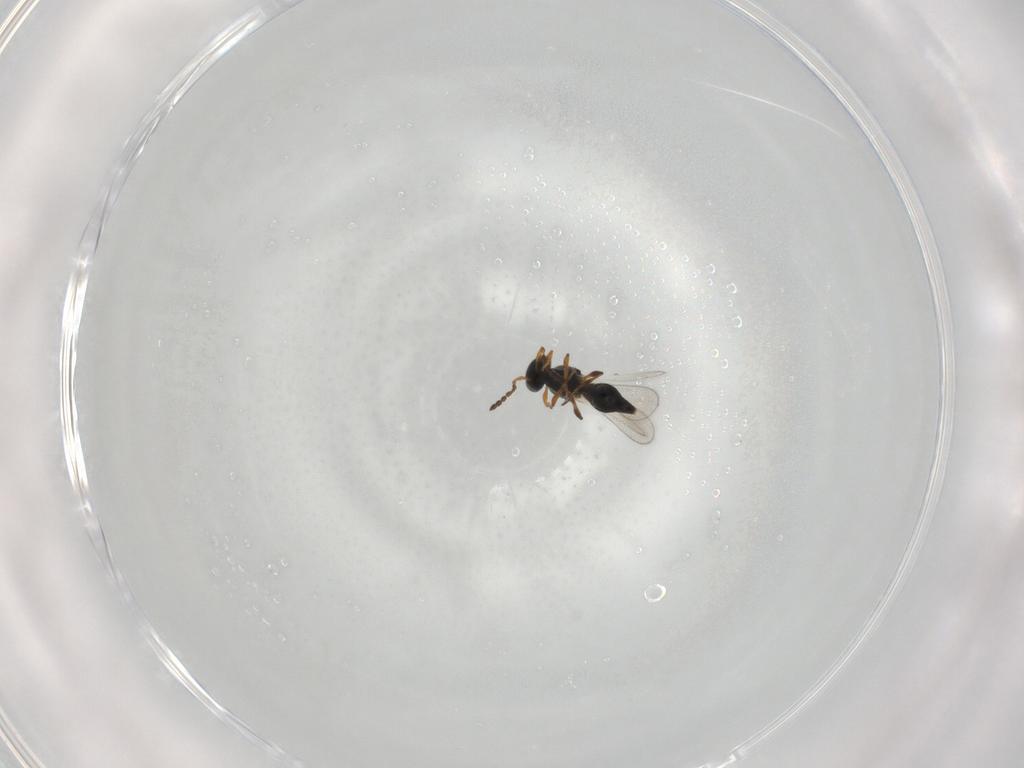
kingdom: Animalia
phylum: Arthropoda
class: Insecta
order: Hymenoptera
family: Platygastridae
